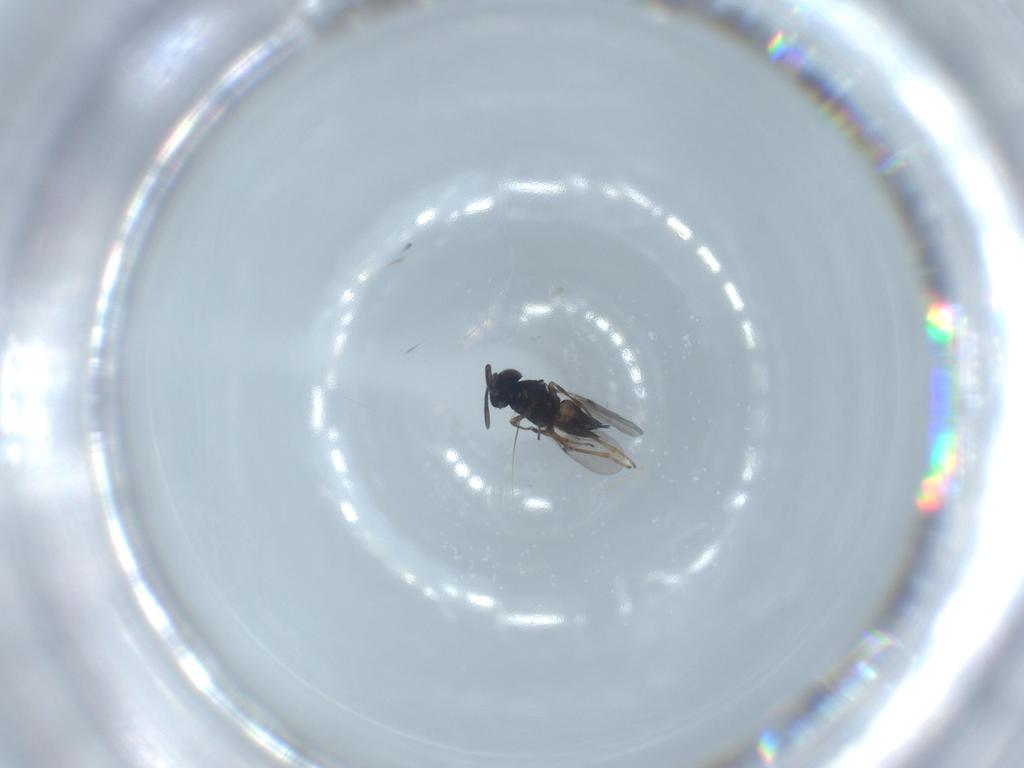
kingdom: Animalia
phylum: Arthropoda
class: Insecta
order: Hymenoptera
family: Encyrtidae
